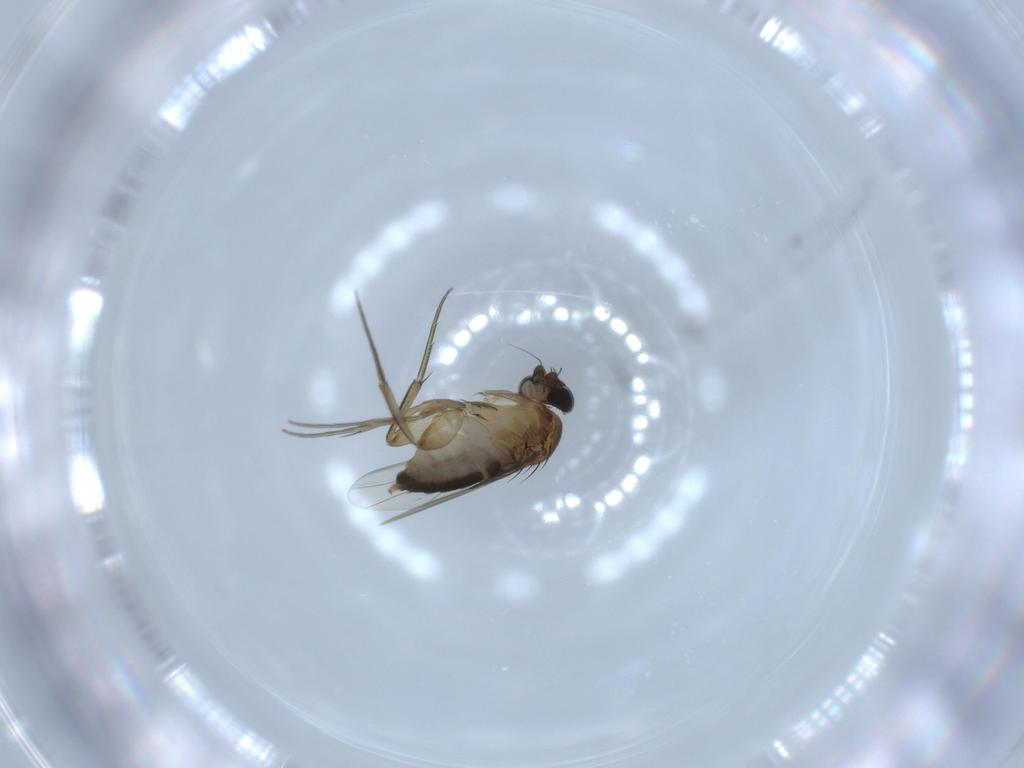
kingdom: Animalia
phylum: Arthropoda
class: Insecta
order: Diptera
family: Phoridae
